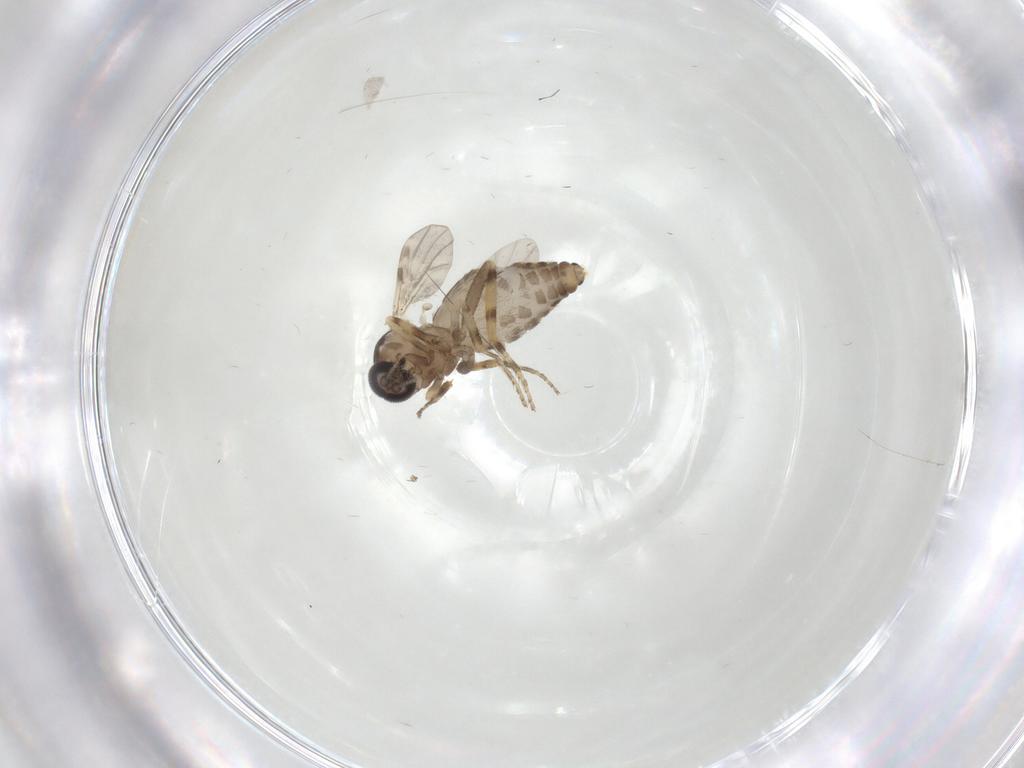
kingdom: Animalia
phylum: Arthropoda
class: Insecta
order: Diptera
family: Ceratopogonidae
